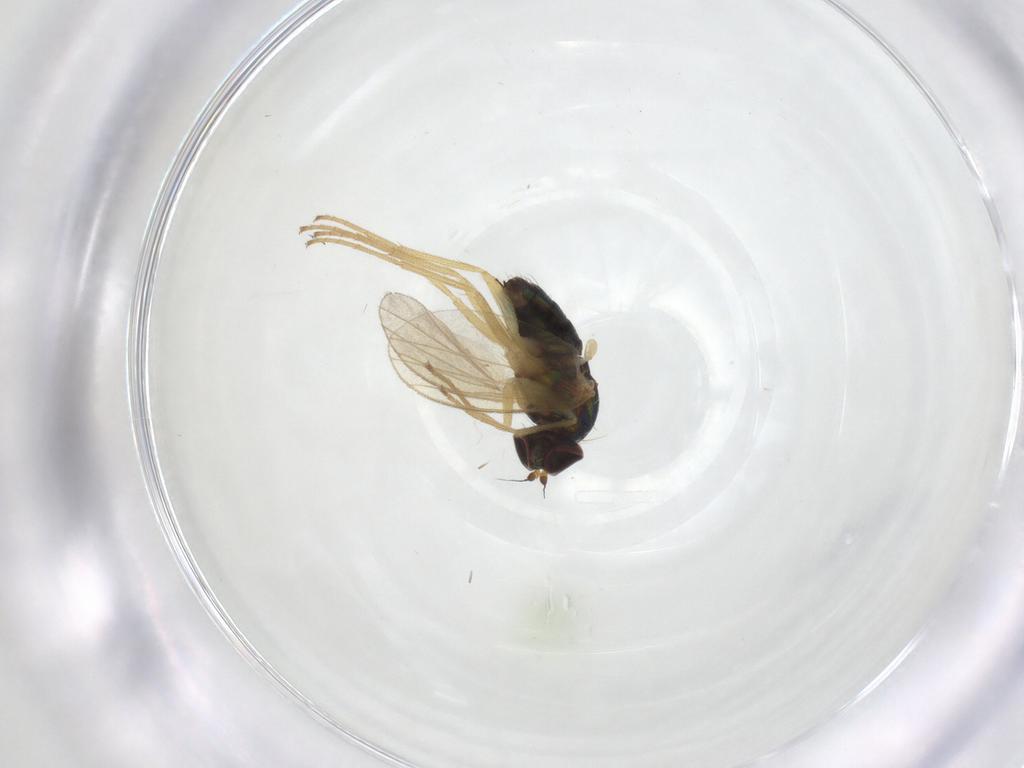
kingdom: Animalia
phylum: Arthropoda
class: Insecta
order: Diptera
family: Dolichopodidae
